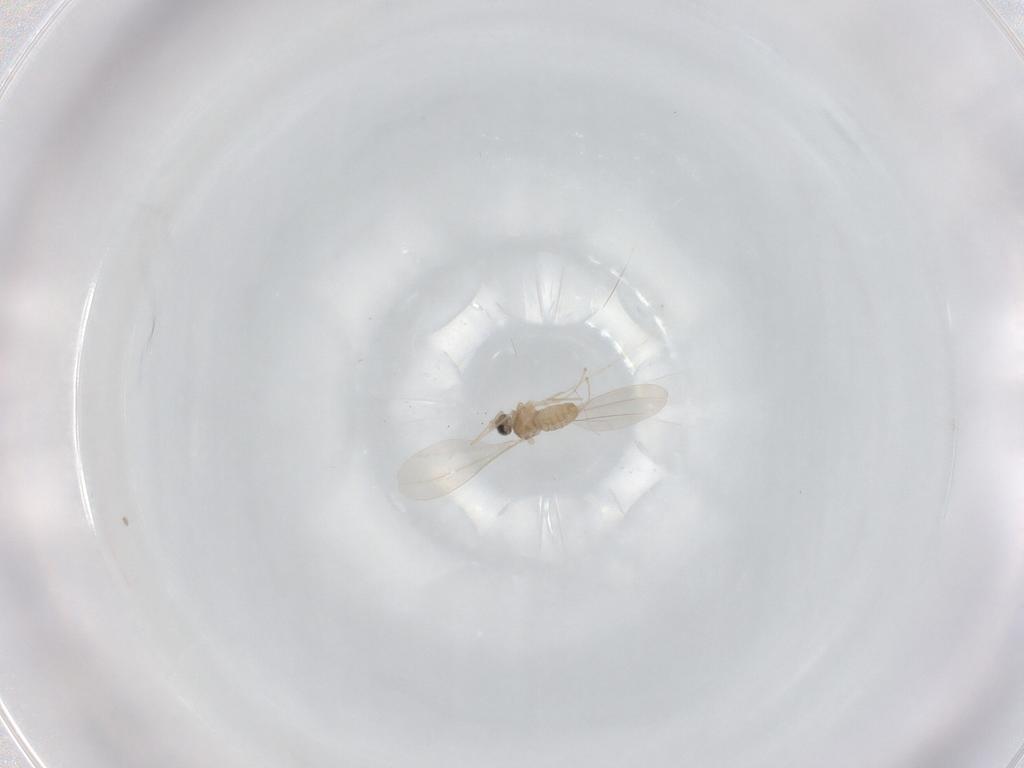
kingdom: Animalia
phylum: Arthropoda
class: Insecta
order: Diptera
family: Cecidomyiidae
